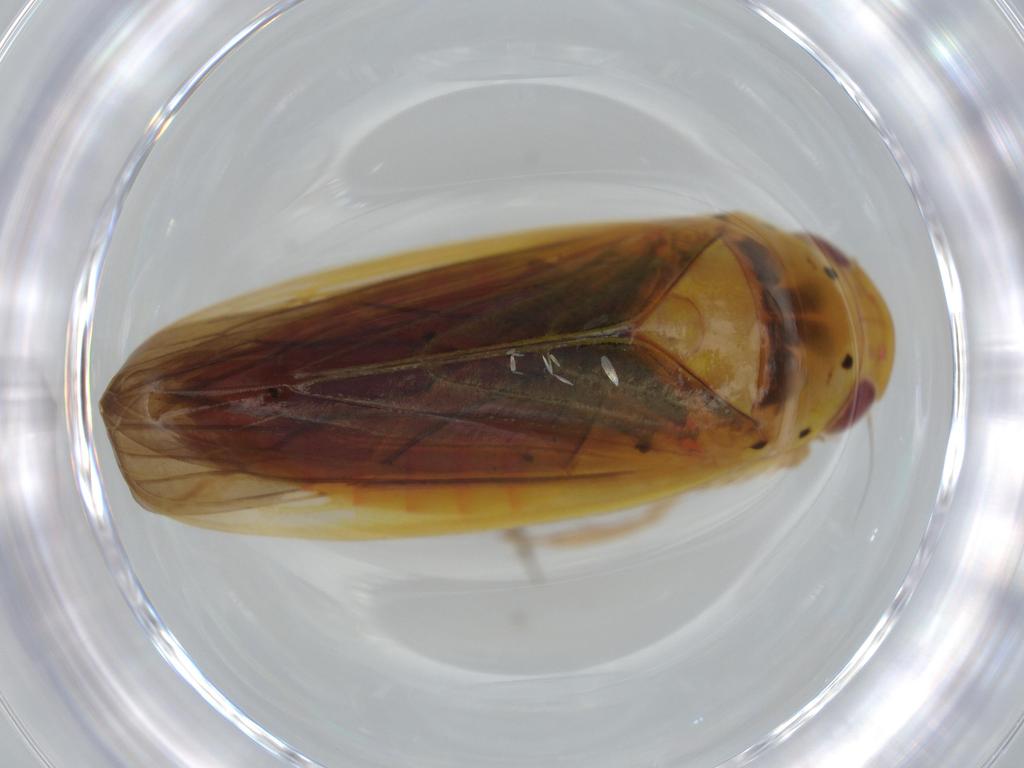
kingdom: Animalia
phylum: Arthropoda
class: Insecta
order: Hemiptera
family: Cicadellidae
